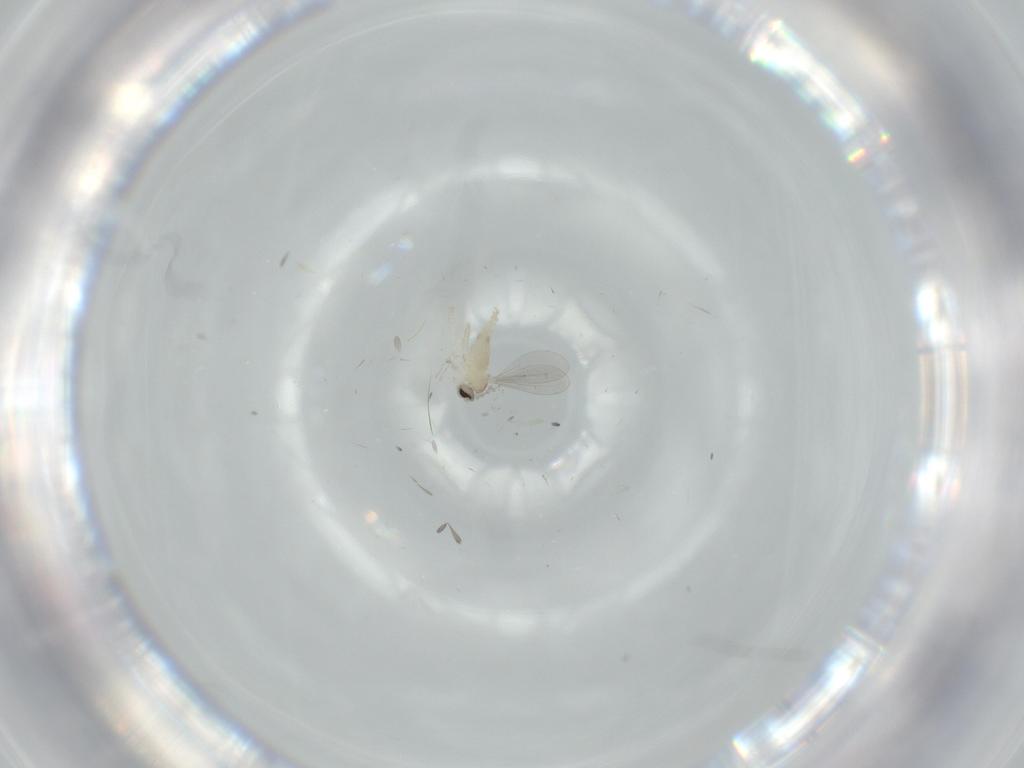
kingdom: Animalia
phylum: Arthropoda
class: Insecta
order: Diptera
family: Cecidomyiidae
